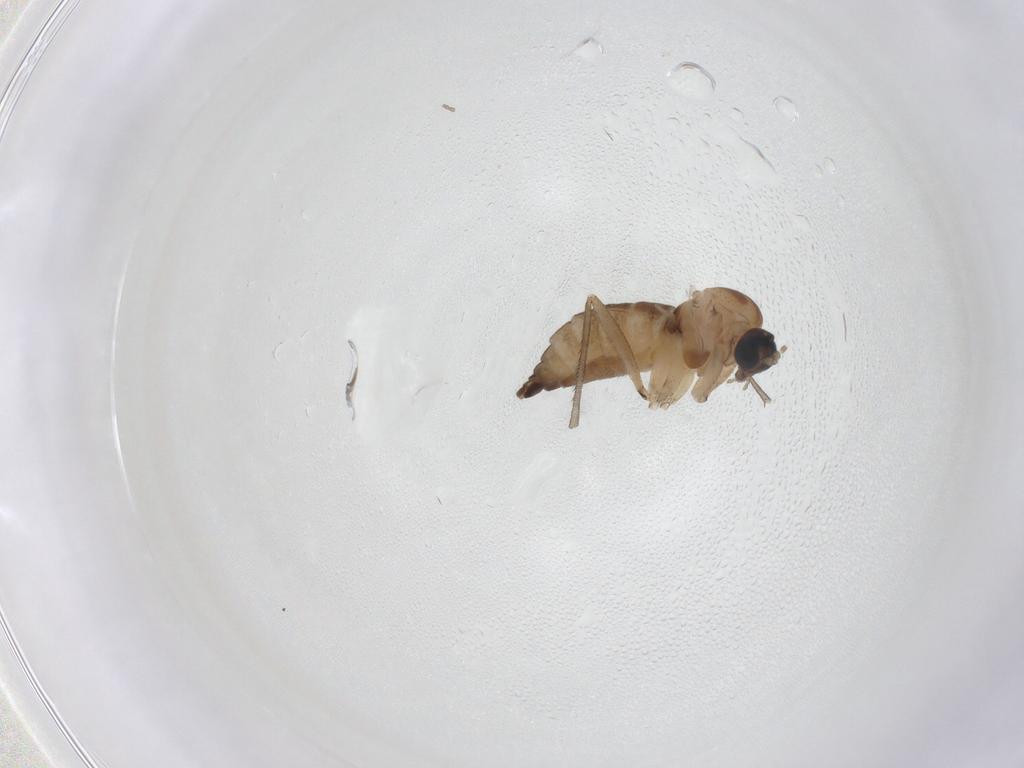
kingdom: Animalia
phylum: Arthropoda
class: Insecta
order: Diptera
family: Sciaridae
